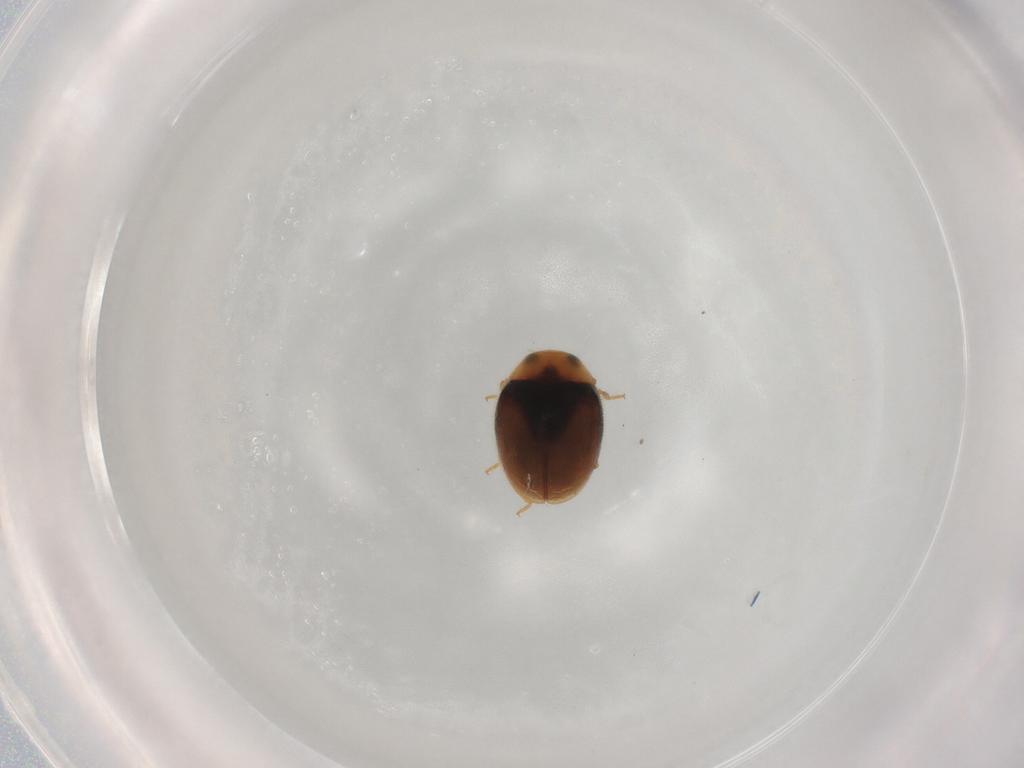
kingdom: Animalia
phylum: Arthropoda
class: Insecta
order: Coleoptera
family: Coccinellidae
